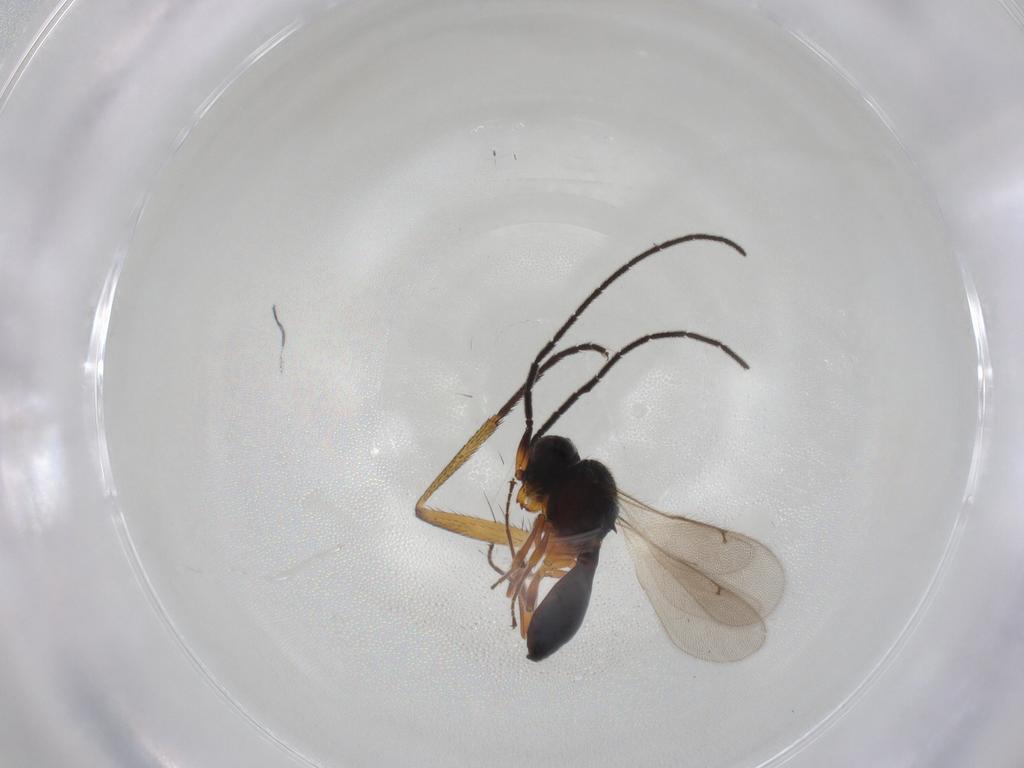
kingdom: Animalia
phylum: Arthropoda
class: Insecta
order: Hymenoptera
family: Scelionidae
